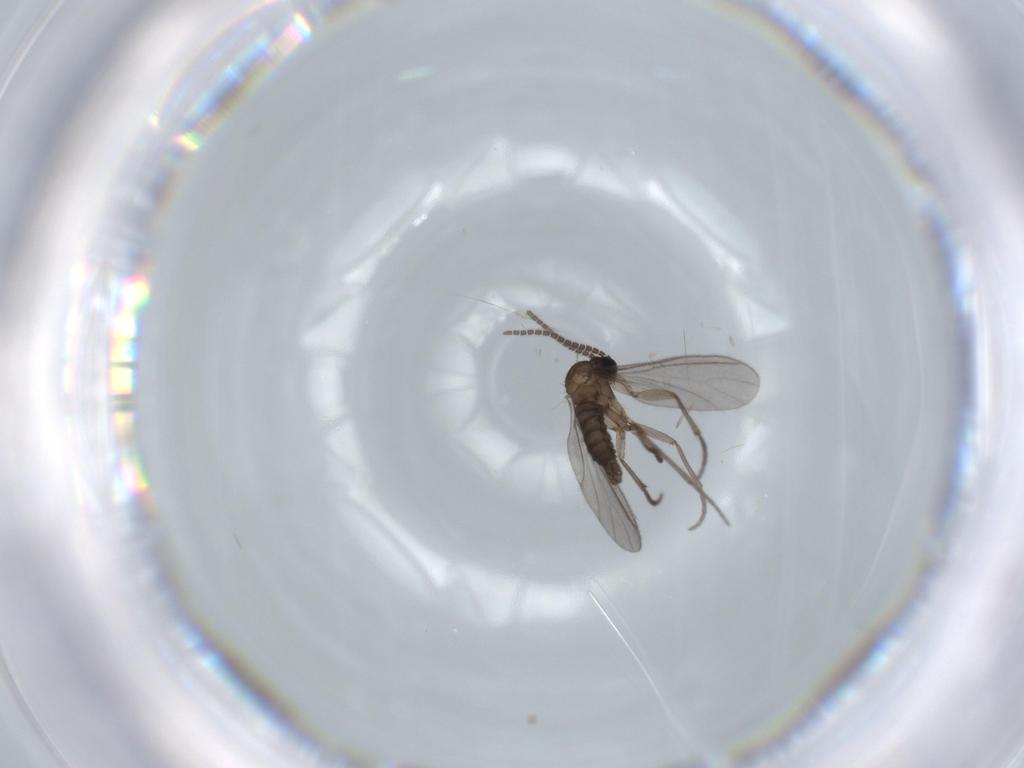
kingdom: Animalia
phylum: Arthropoda
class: Insecta
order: Diptera
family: Sciaridae
